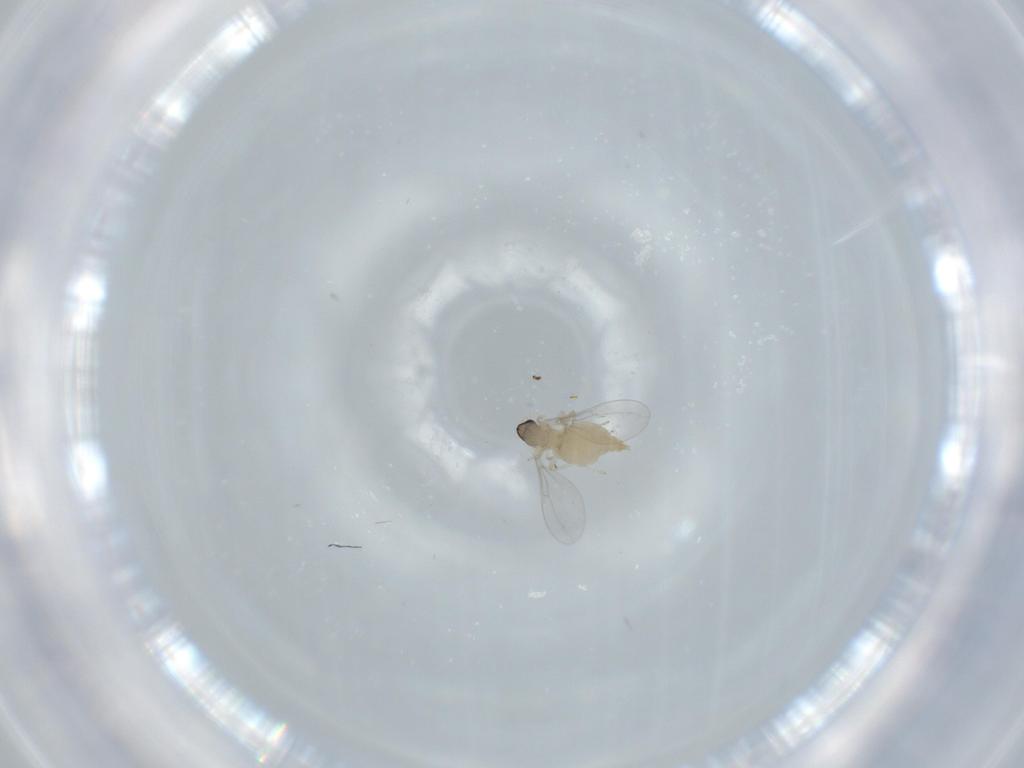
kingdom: Animalia
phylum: Arthropoda
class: Insecta
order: Diptera
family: Cecidomyiidae
